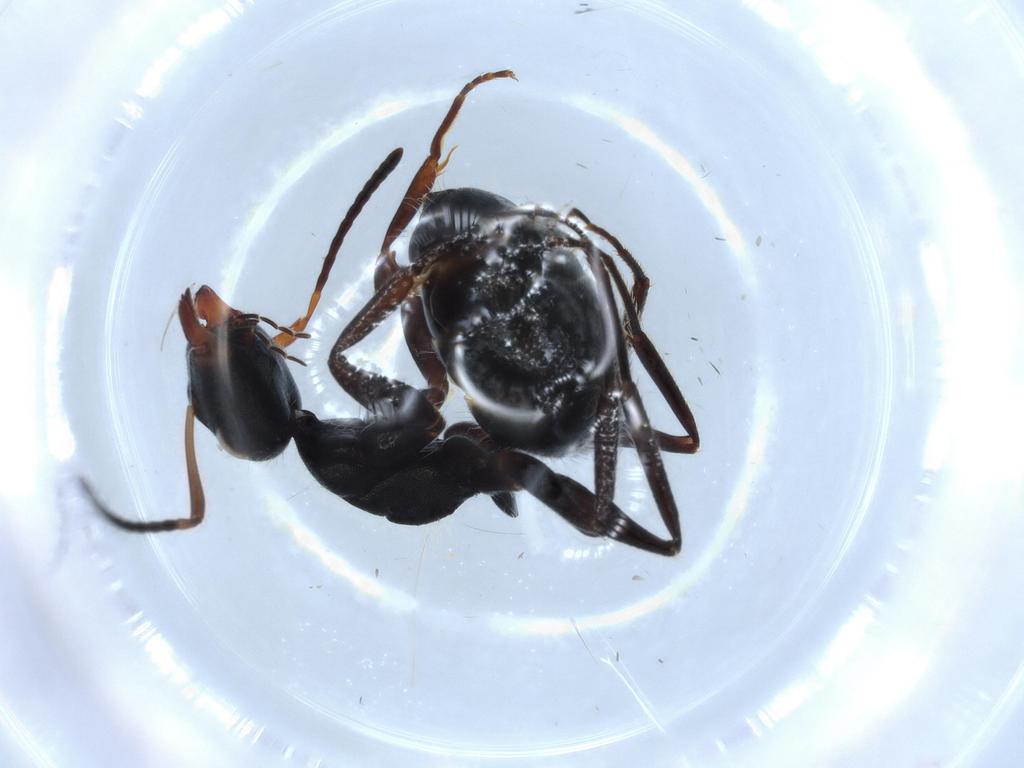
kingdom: Animalia
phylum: Arthropoda
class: Insecta
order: Hymenoptera
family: Formicidae
